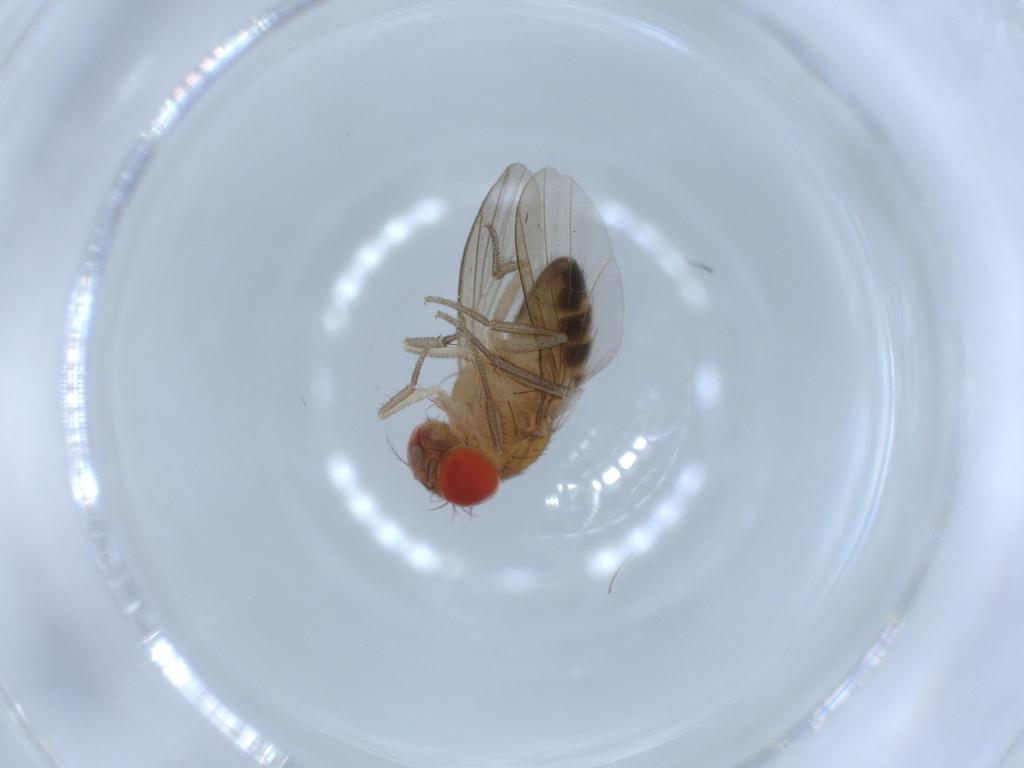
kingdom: Animalia
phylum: Arthropoda
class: Insecta
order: Diptera
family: Drosophilidae
